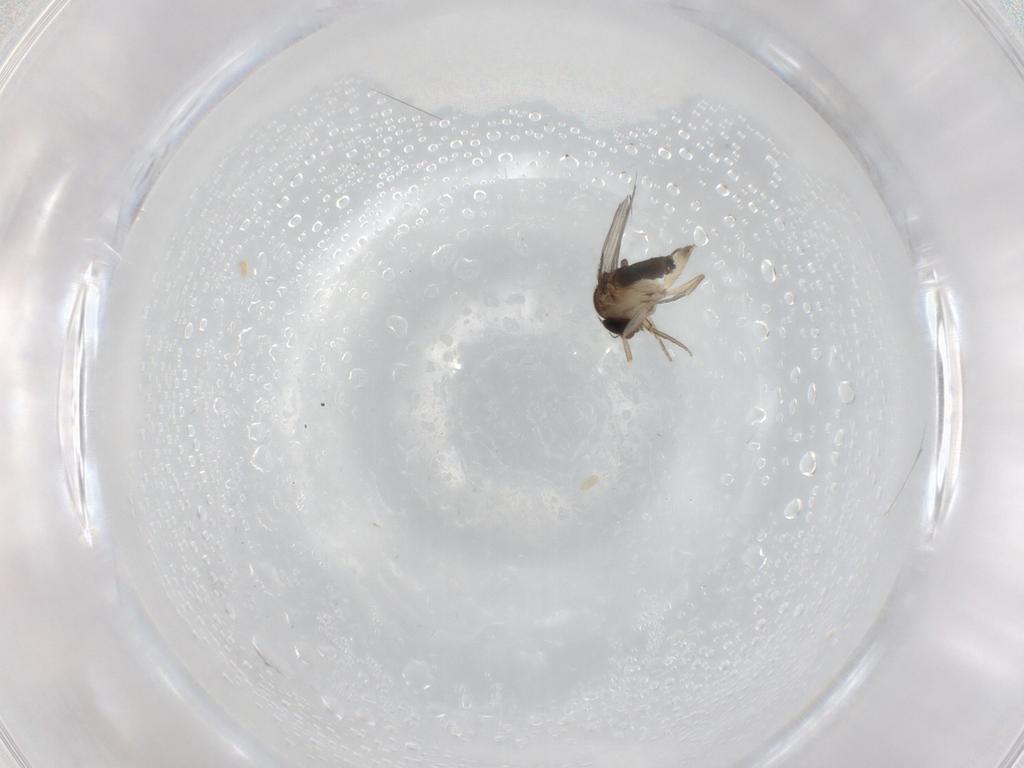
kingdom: Animalia
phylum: Arthropoda
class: Insecta
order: Diptera
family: Phoridae
